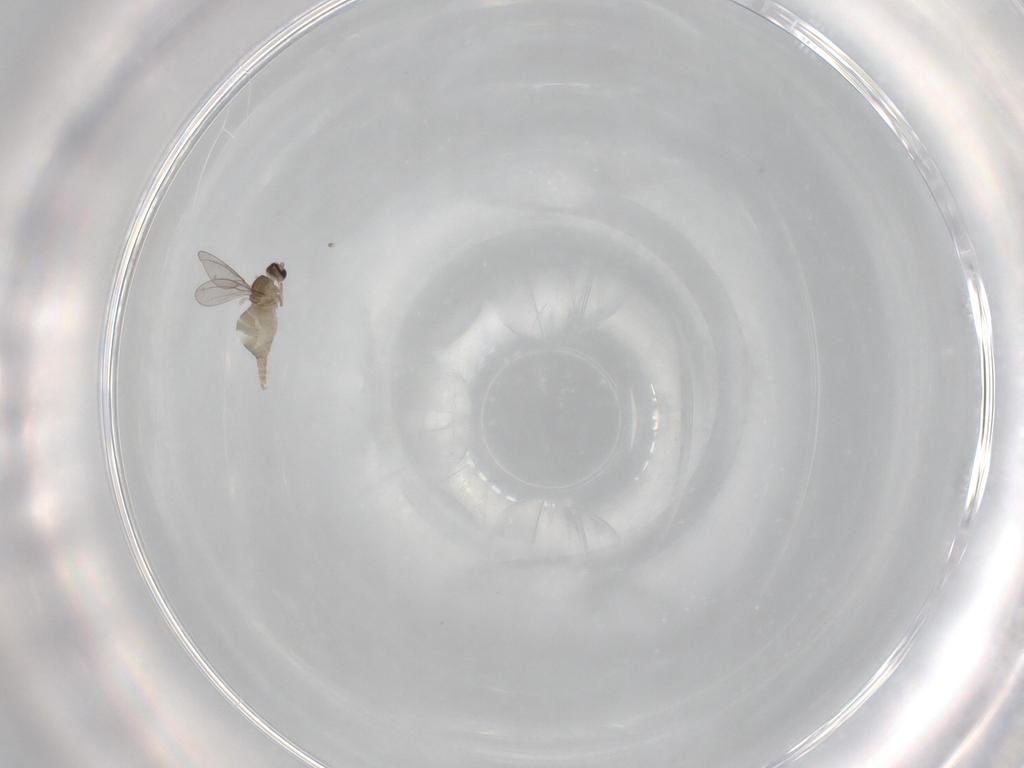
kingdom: Animalia
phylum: Arthropoda
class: Insecta
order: Diptera
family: Cecidomyiidae
